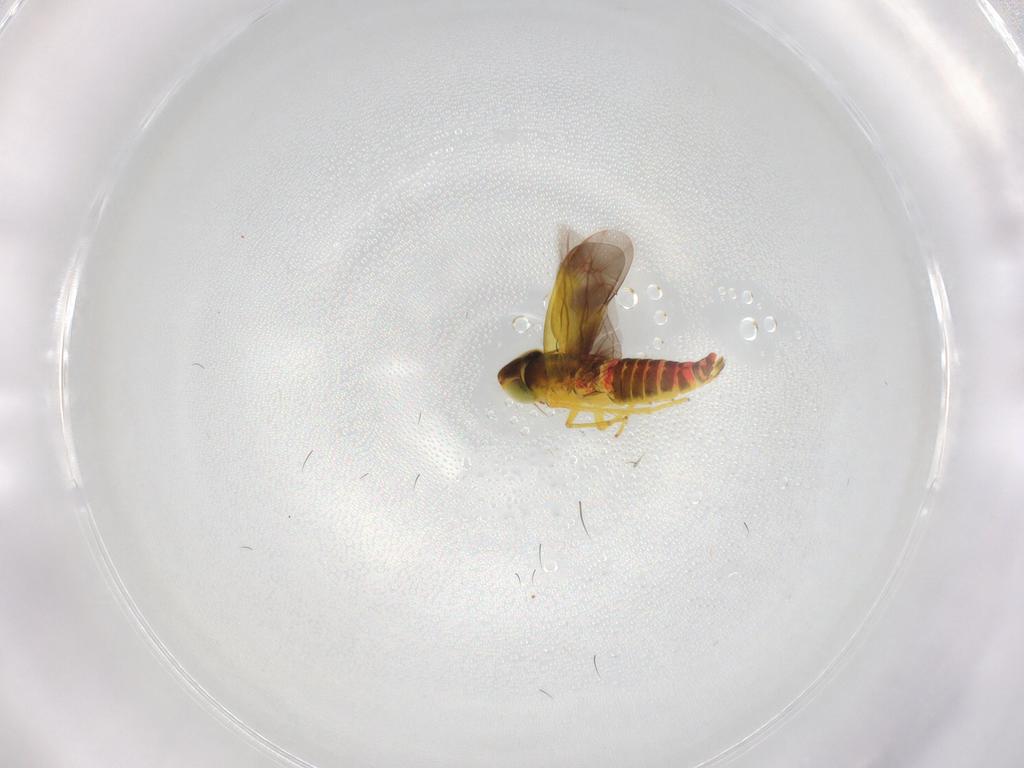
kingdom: Animalia
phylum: Arthropoda
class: Insecta
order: Hemiptera
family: Cicadellidae
